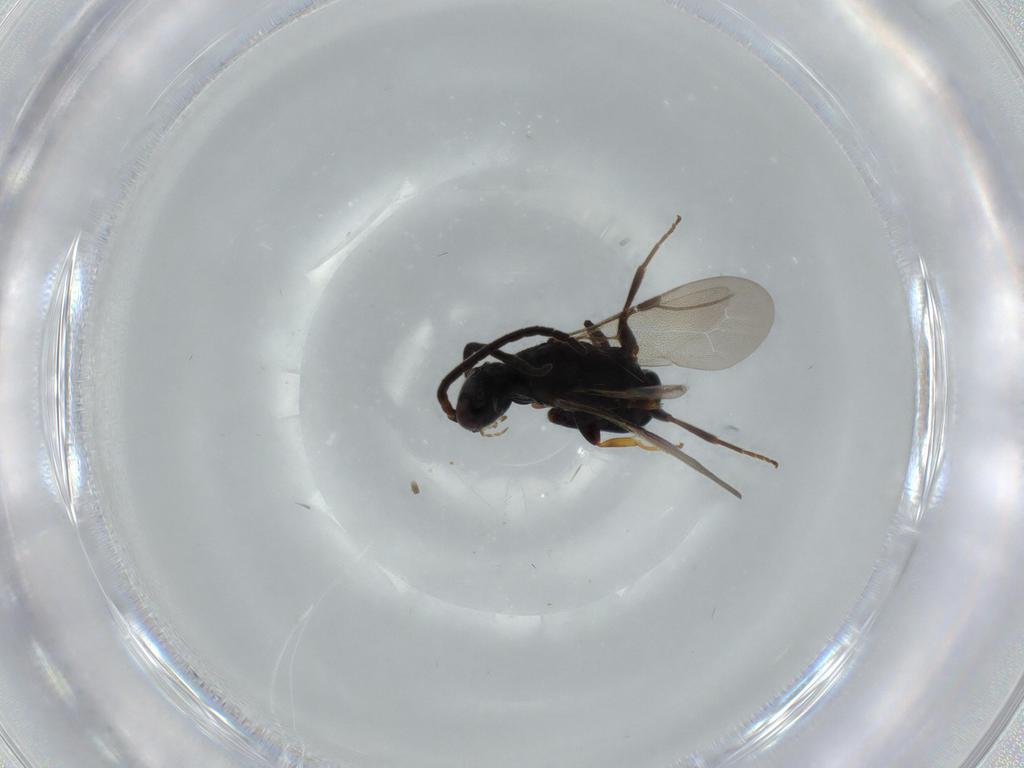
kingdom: Animalia
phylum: Arthropoda
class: Insecta
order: Hymenoptera
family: Bethylidae
